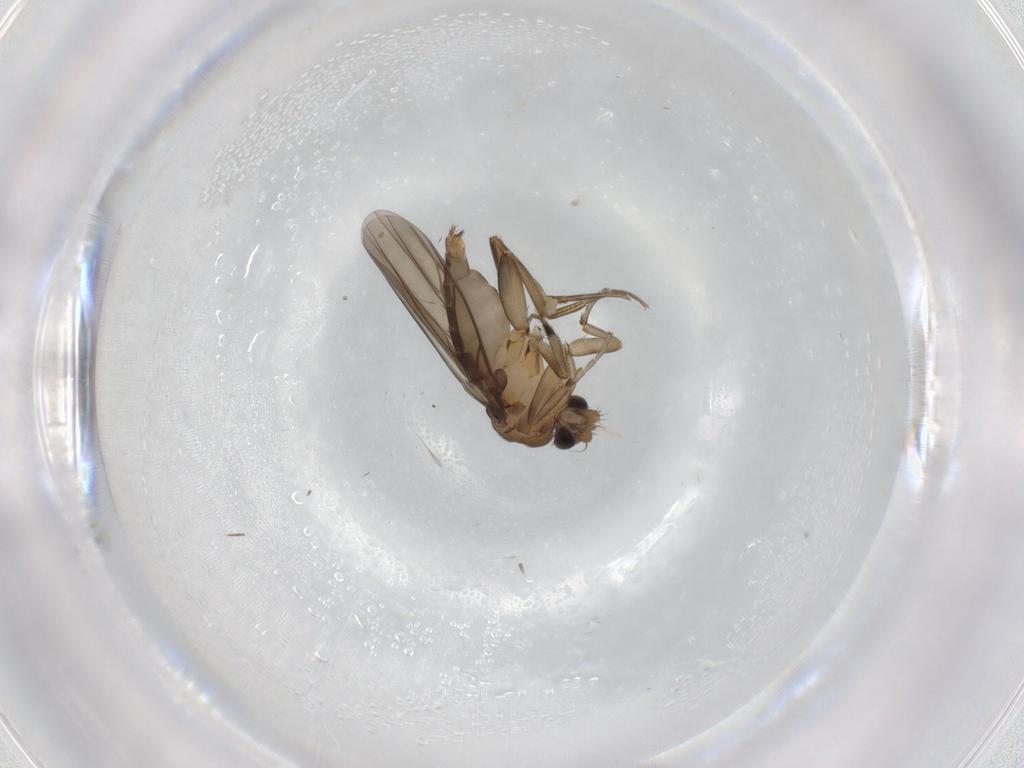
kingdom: Animalia
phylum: Arthropoda
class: Insecta
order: Diptera
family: Phoridae
